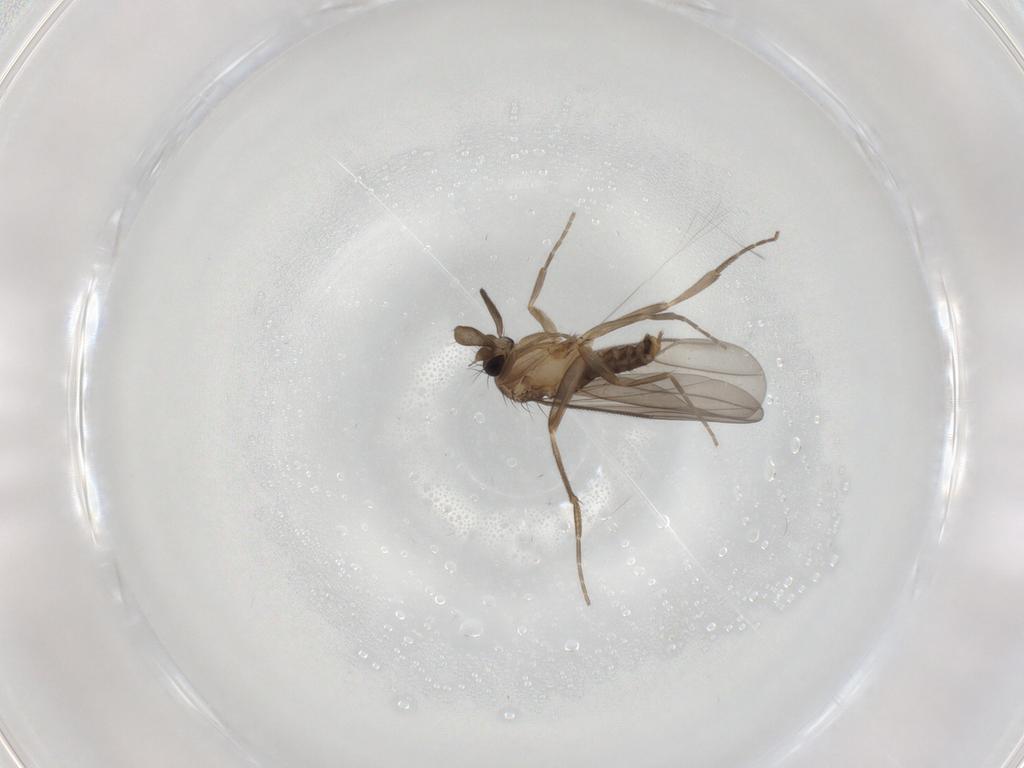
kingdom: Animalia
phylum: Arthropoda
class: Insecta
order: Diptera
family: Limoniidae
